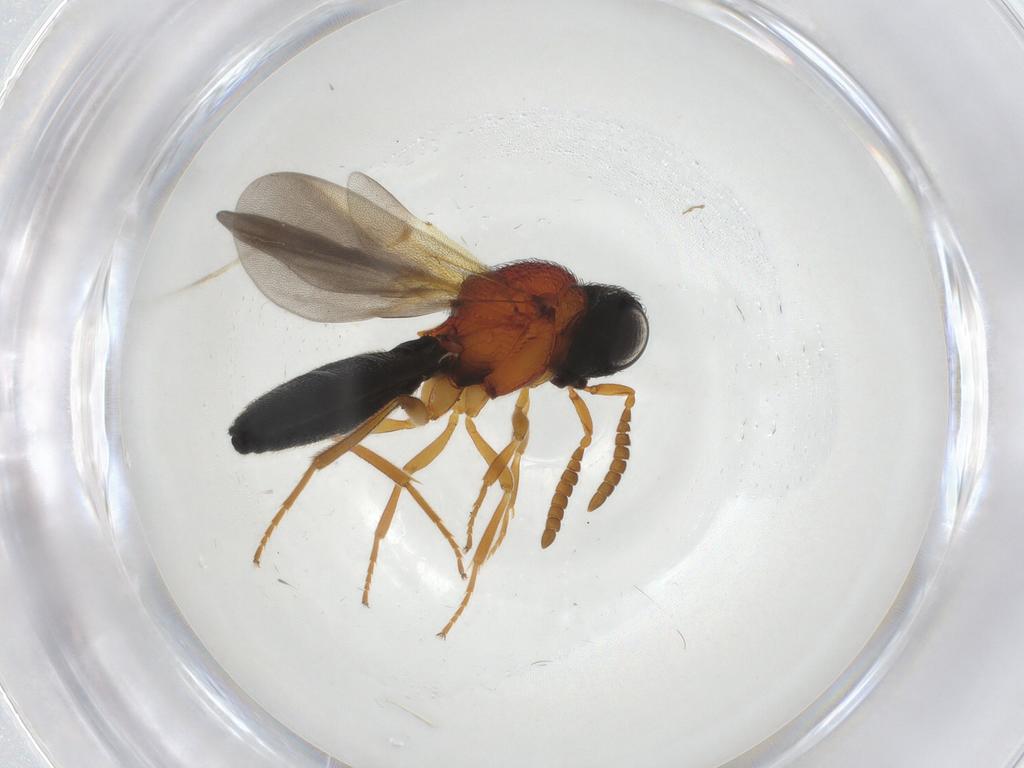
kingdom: Animalia
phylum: Arthropoda
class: Insecta
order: Hymenoptera
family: Scelionidae
